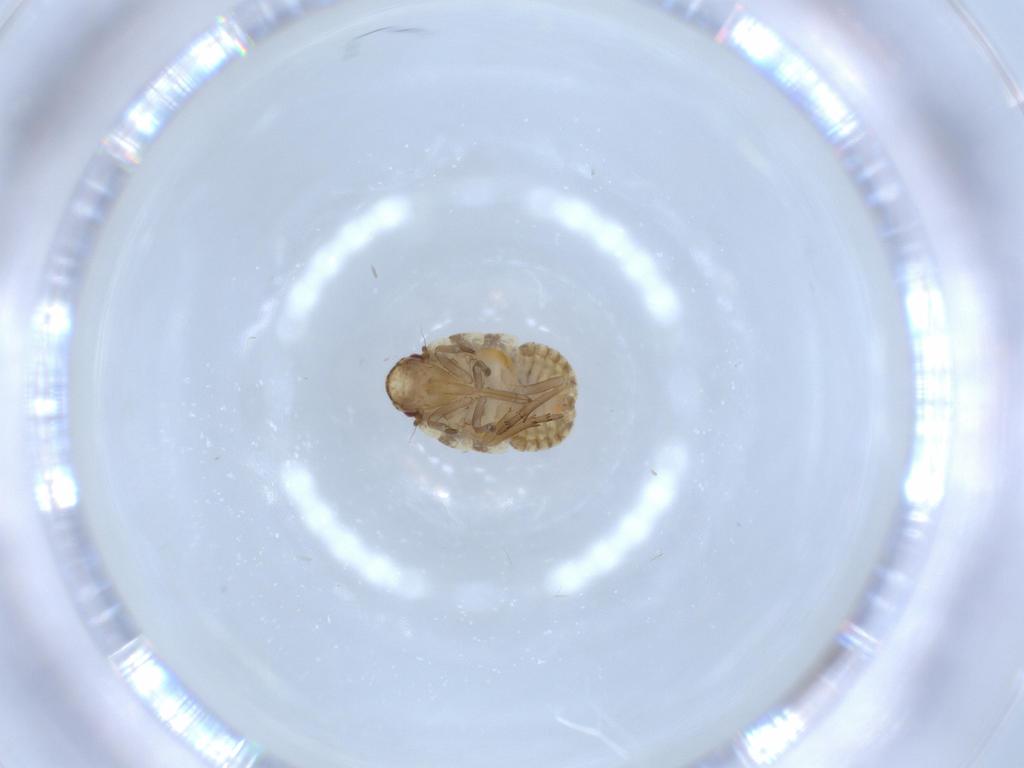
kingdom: Animalia
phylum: Arthropoda
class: Insecta
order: Hemiptera
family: Flatidae
